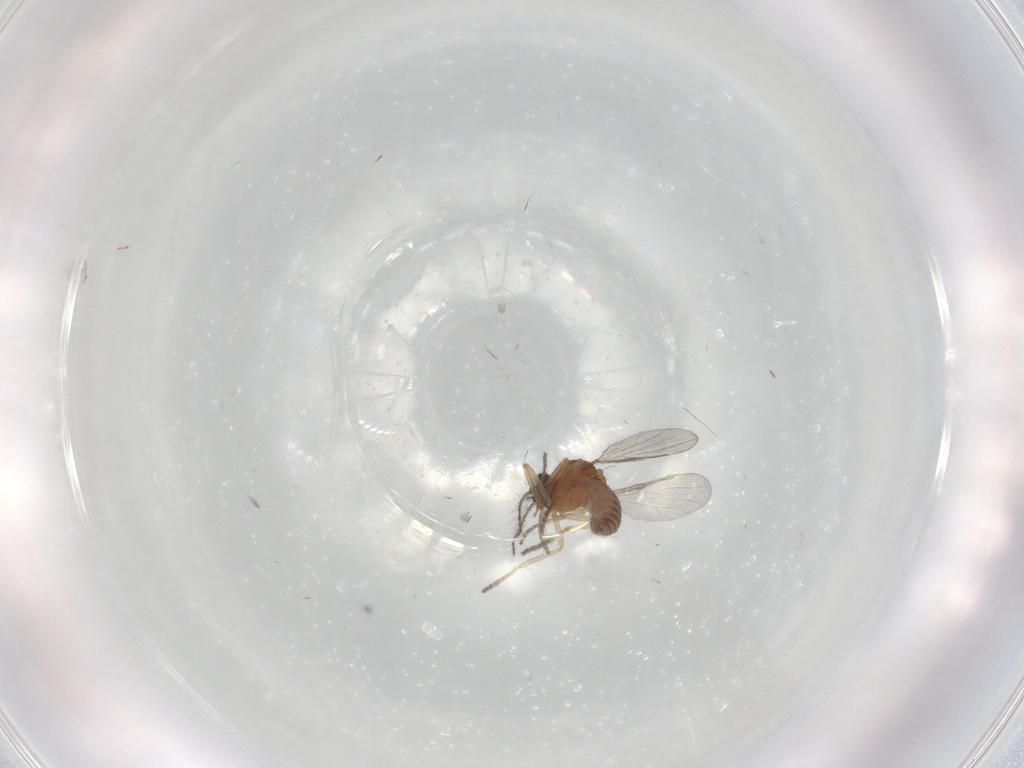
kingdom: Animalia
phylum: Arthropoda
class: Insecta
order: Diptera
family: Ceratopogonidae
